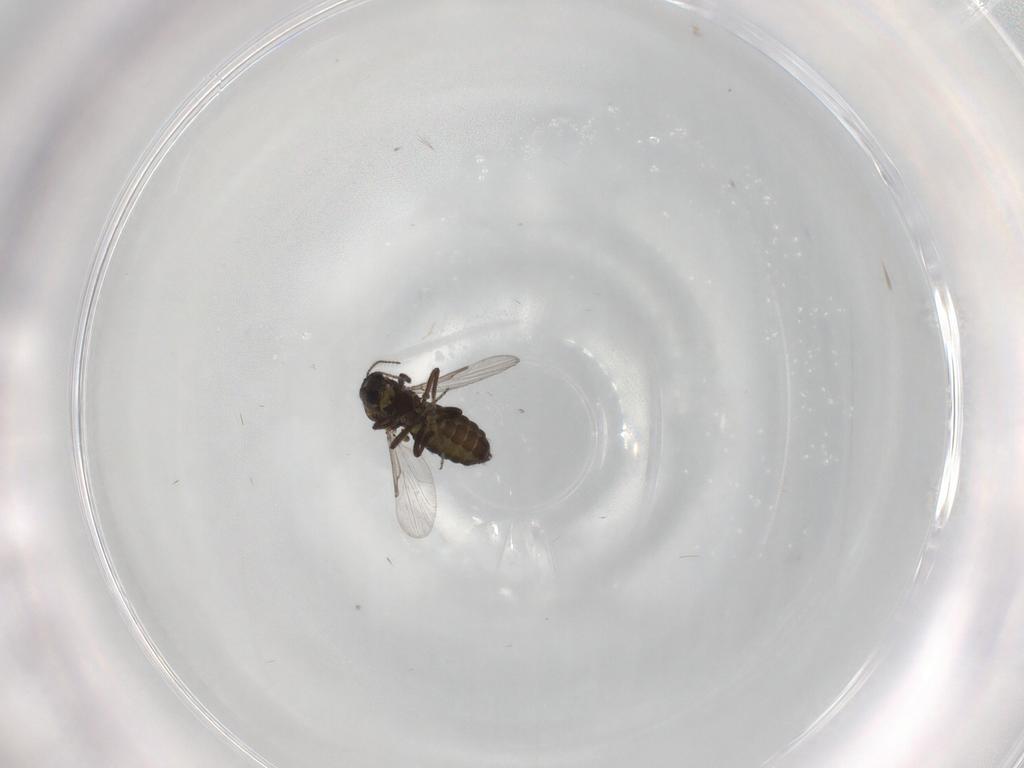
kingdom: Animalia
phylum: Arthropoda
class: Insecta
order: Diptera
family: Ceratopogonidae
